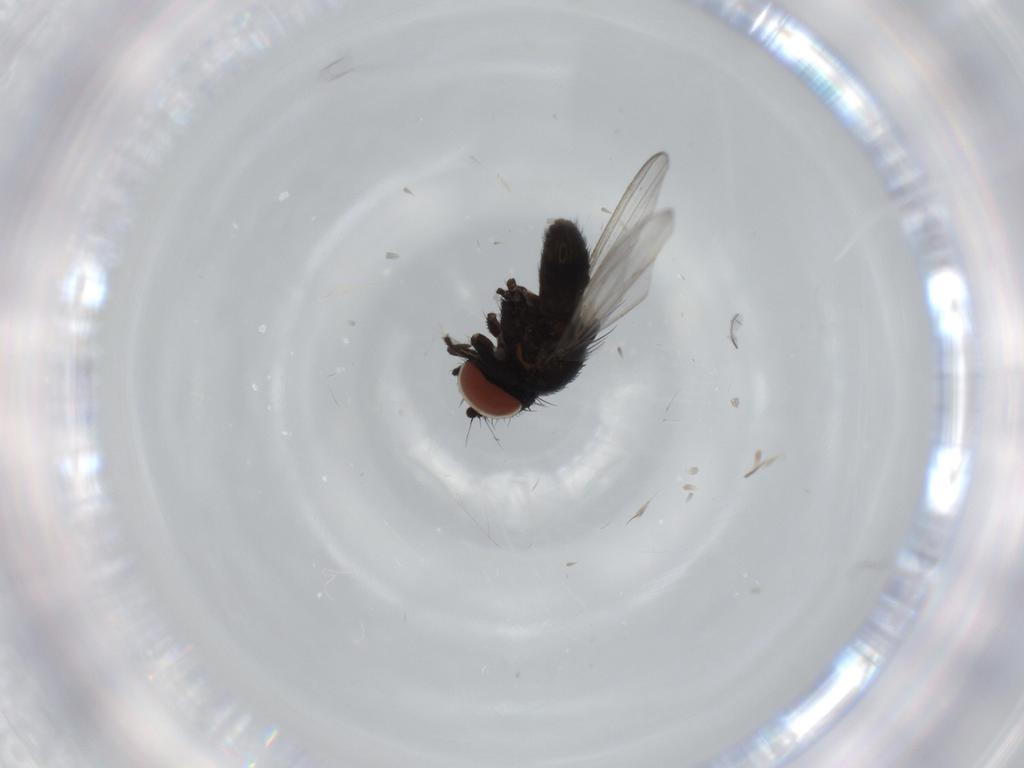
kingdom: Animalia
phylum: Arthropoda
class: Insecta
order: Diptera
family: Milichiidae
